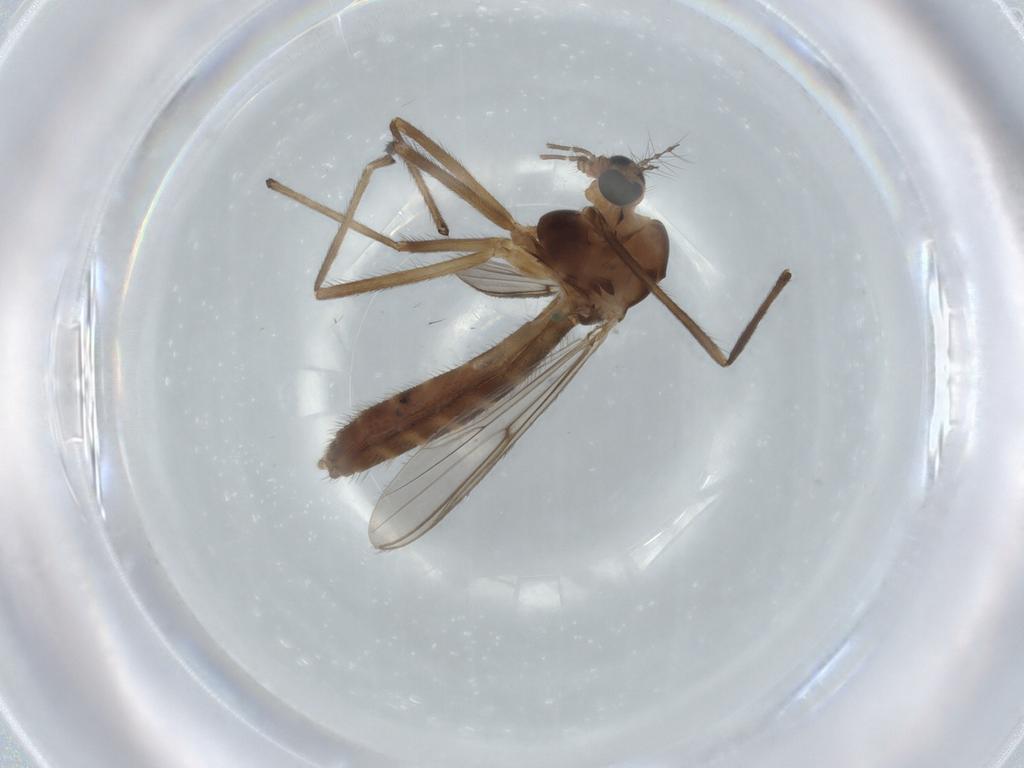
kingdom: Animalia
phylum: Arthropoda
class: Insecta
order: Diptera
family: Chironomidae
